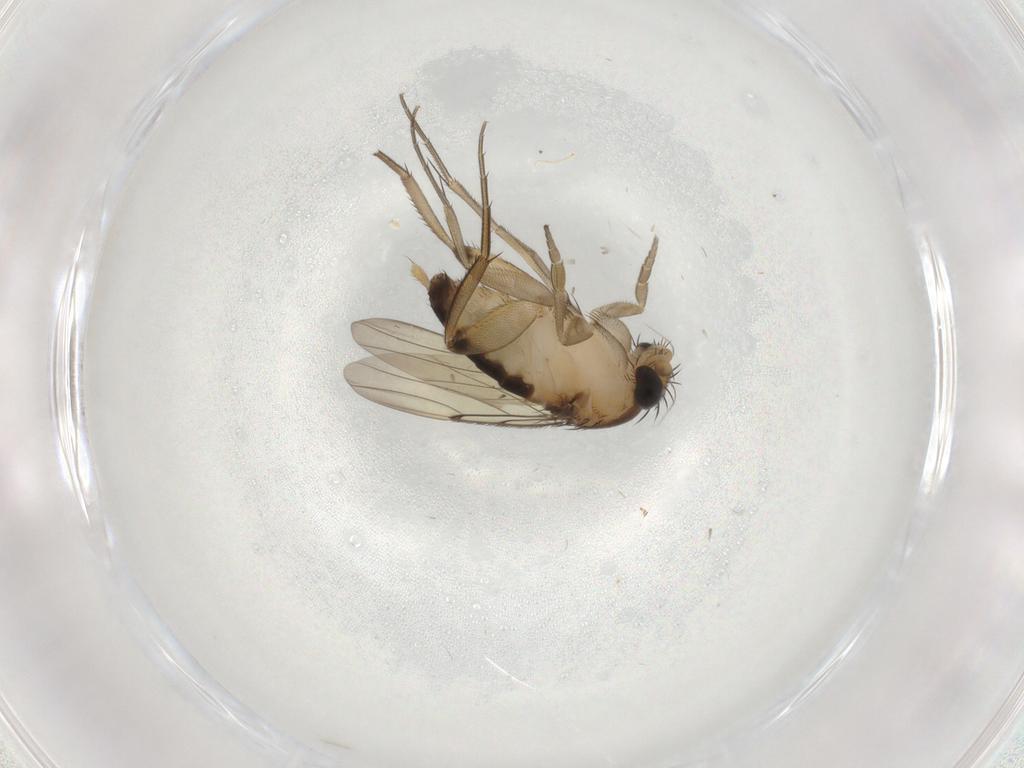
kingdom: Animalia
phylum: Arthropoda
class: Insecta
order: Diptera
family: Phoridae
